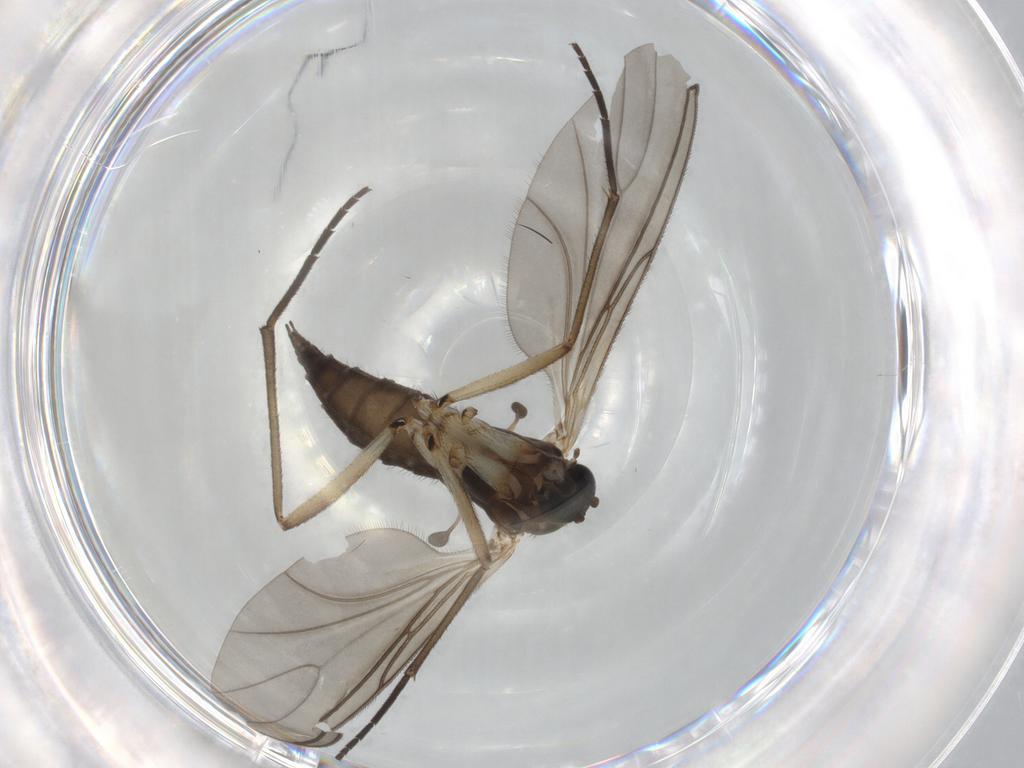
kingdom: Animalia
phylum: Arthropoda
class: Insecta
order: Diptera
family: Sciaridae
